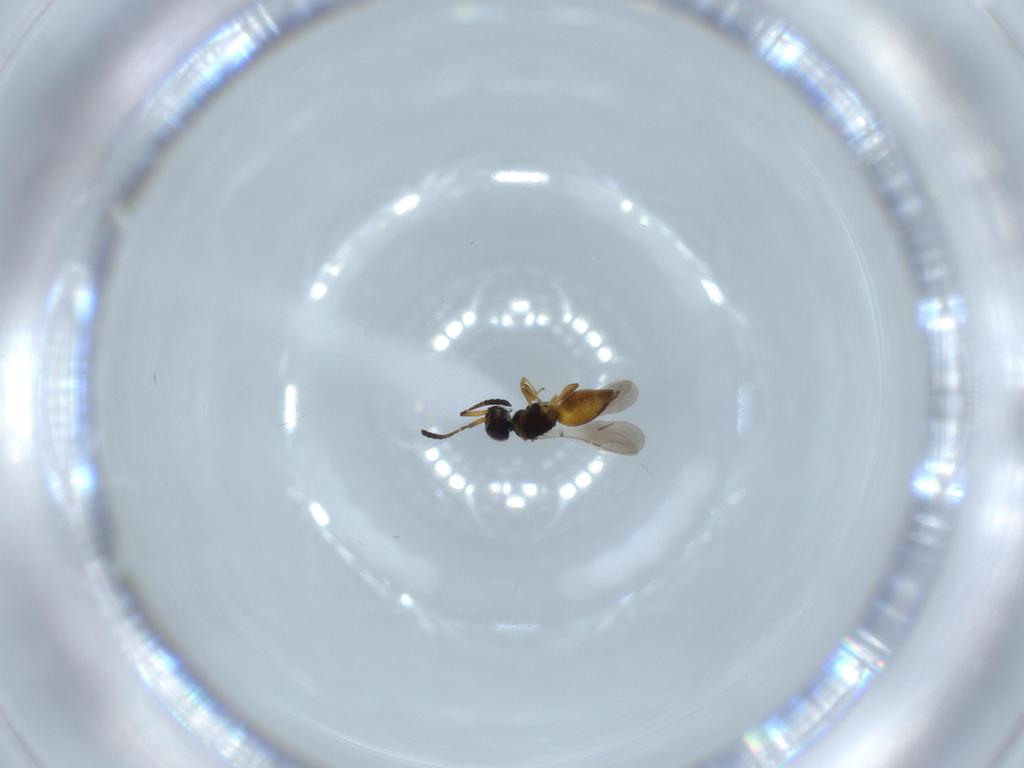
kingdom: Animalia
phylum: Arthropoda
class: Insecta
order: Hymenoptera
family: Ceraphronidae
